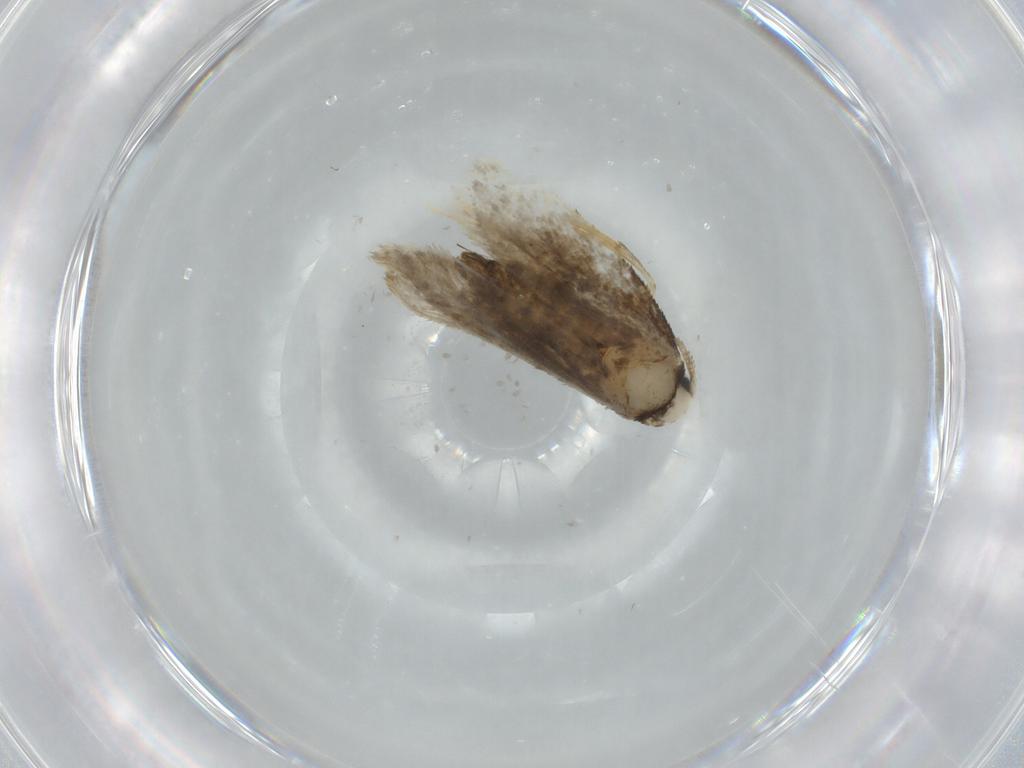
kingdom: Animalia
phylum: Arthropoda
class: Insecta
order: Lepidoptera
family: Psychidae
